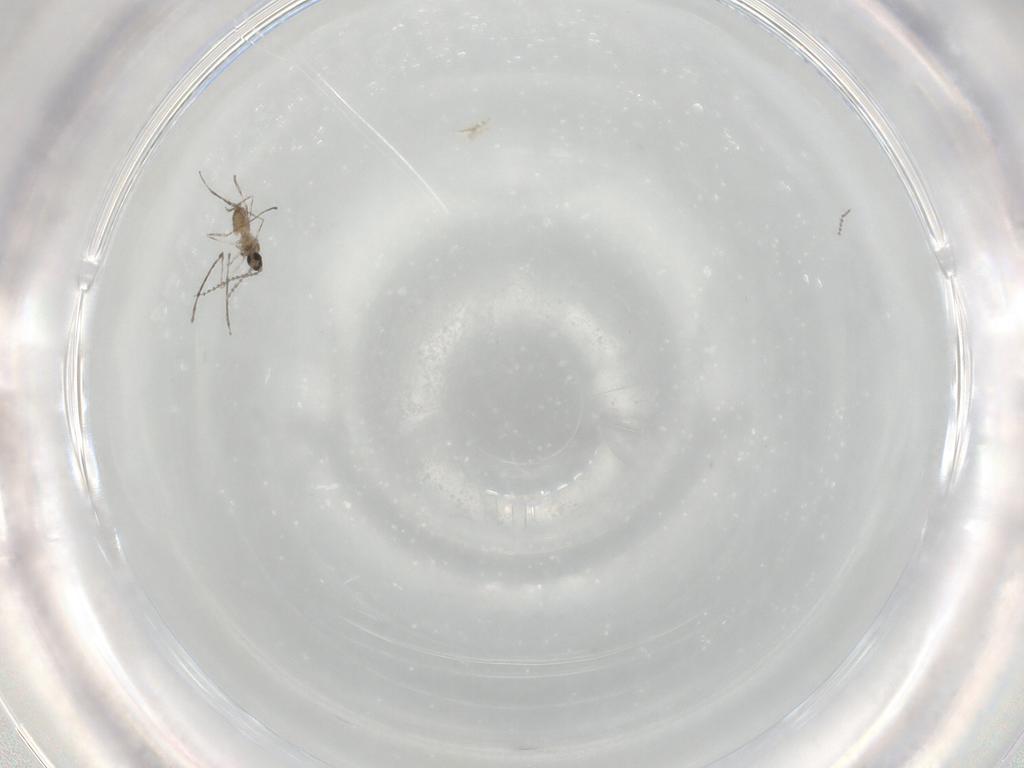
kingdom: Animalia
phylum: Arthropoda
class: Insecta
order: Diptera
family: Cecidomyiidae
